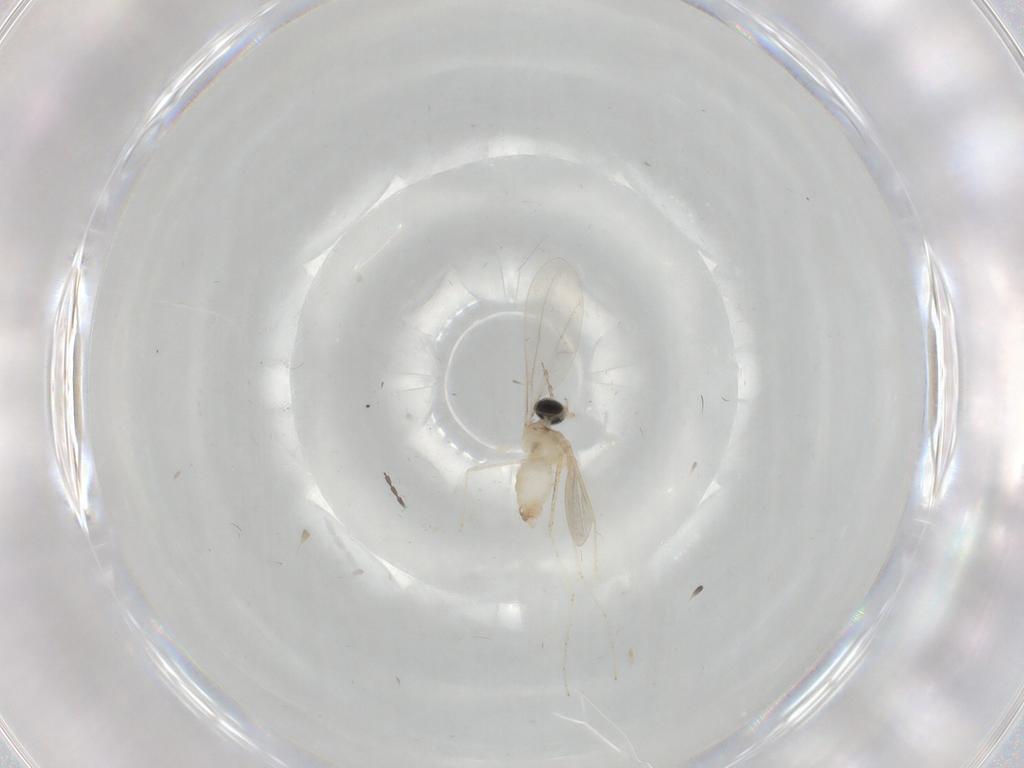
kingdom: Animalia
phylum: Arthropoda
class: Insecta
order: Diptera
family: Cecidomyiidae
